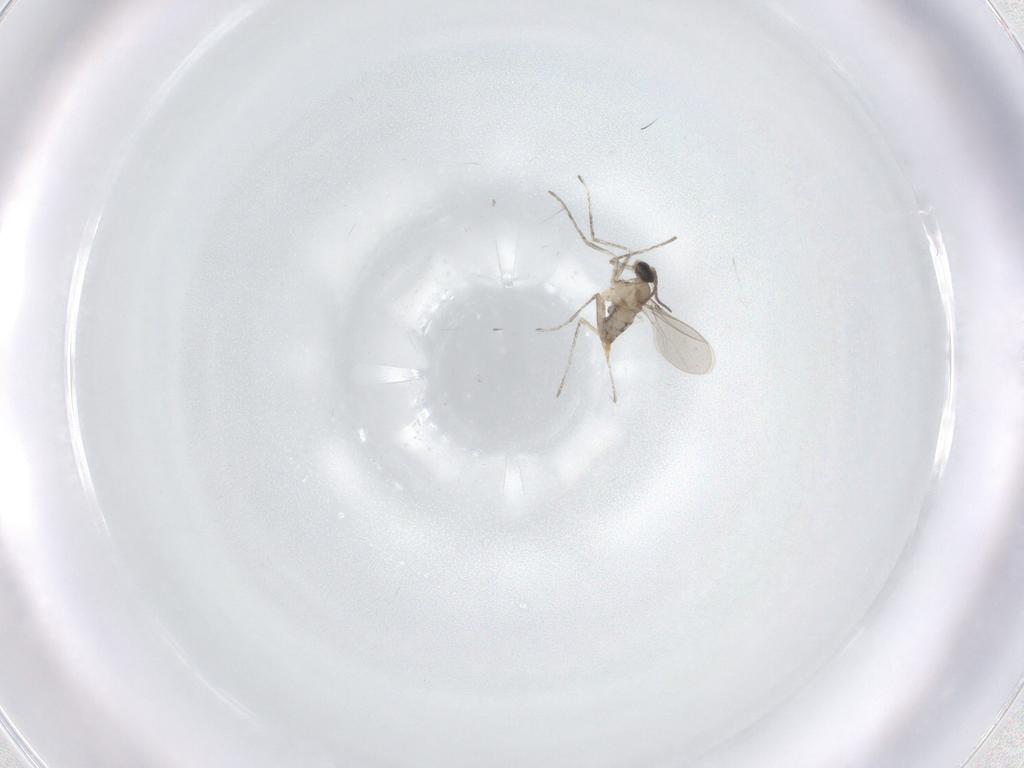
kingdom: Animalia
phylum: Arthropoda
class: Insecta
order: Diptera
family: Cecidomyiidae
